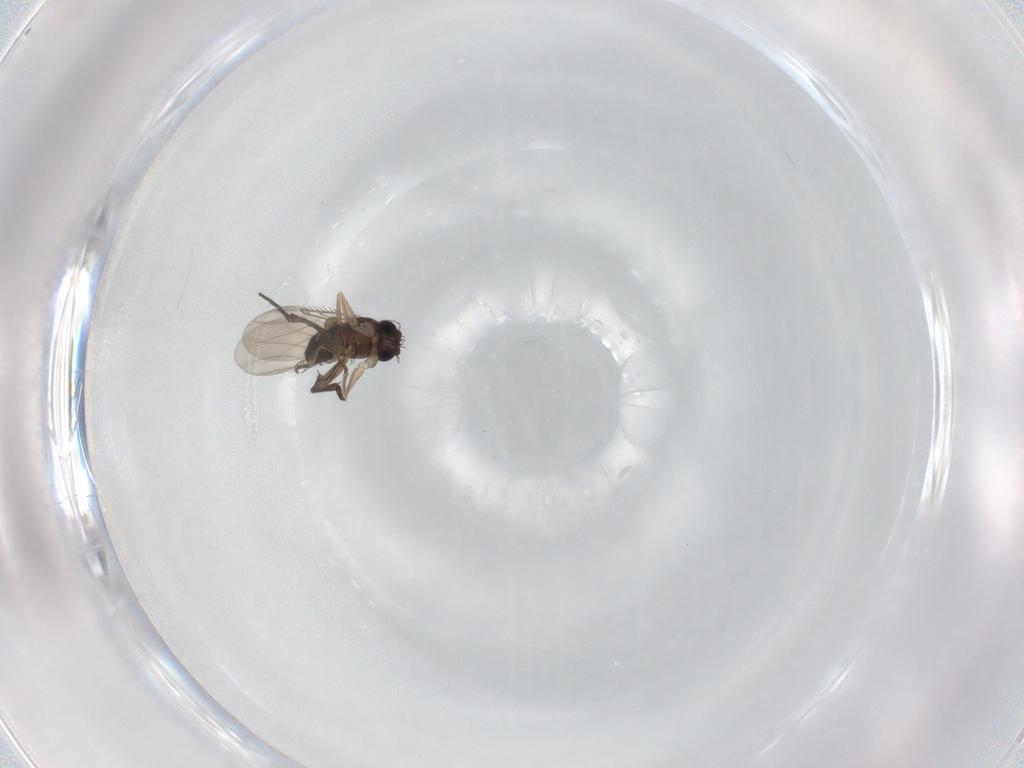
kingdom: Animalia
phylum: Arthropoda
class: Insecta
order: Diptera
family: Phoridae
